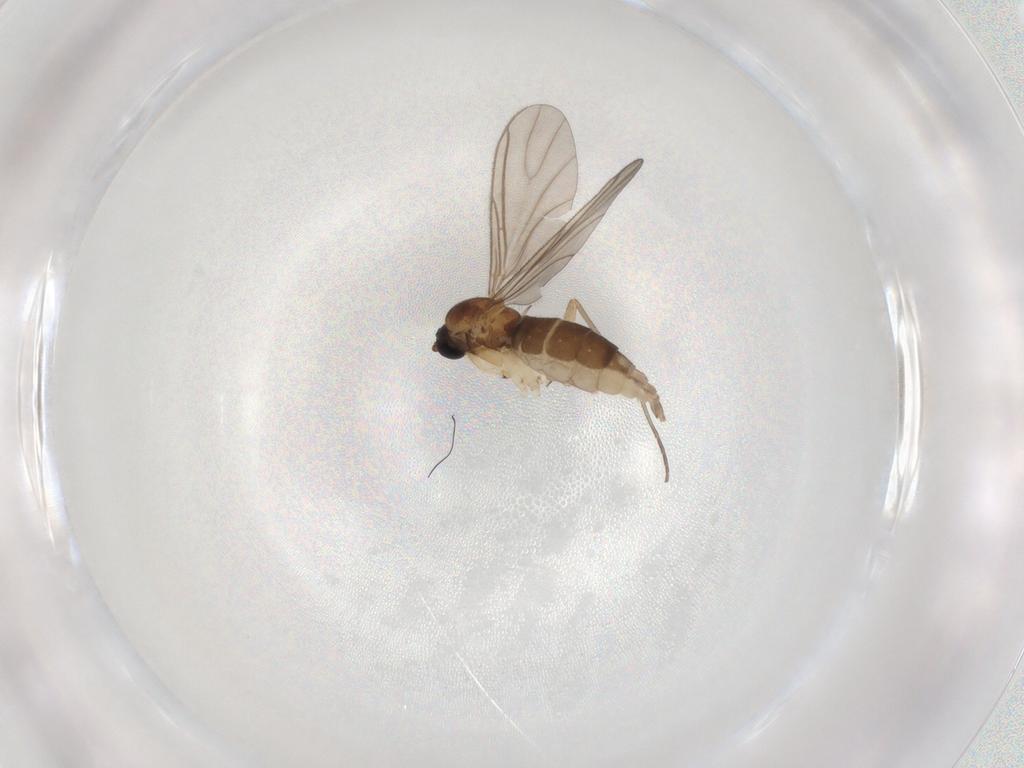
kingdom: Animalia
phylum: Arthropoda
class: Insecta
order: Diptera
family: Sciaridae
